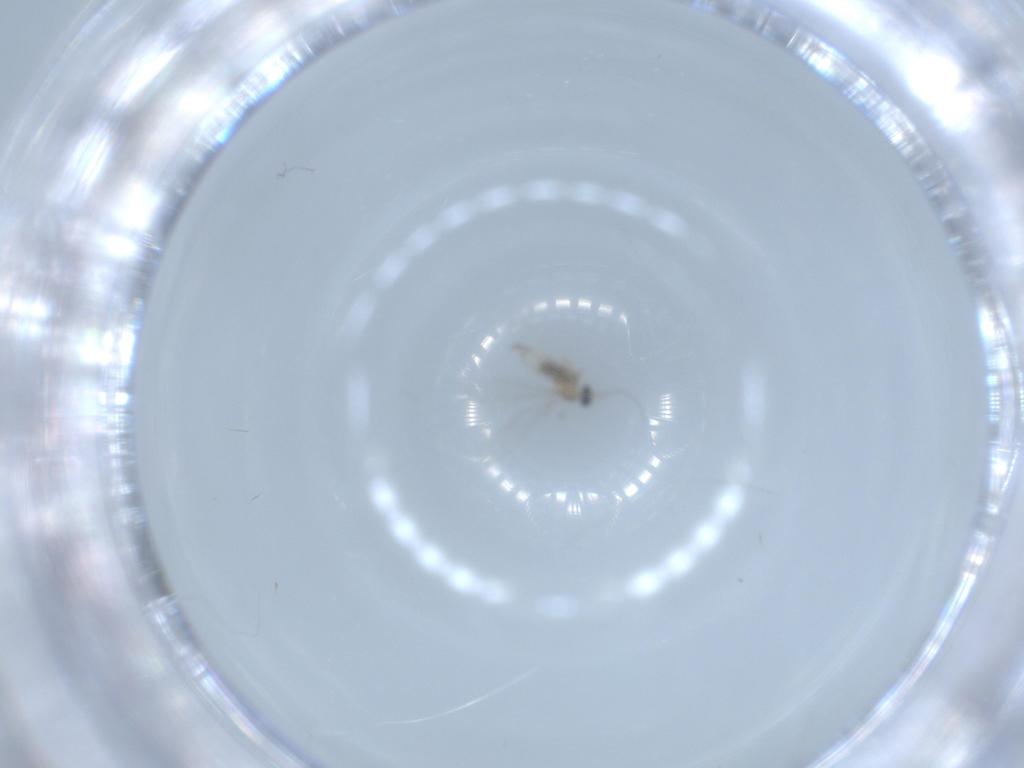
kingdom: Animalia
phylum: Arthropoda
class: Insecta
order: Diptera
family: Cecidomyiidae
